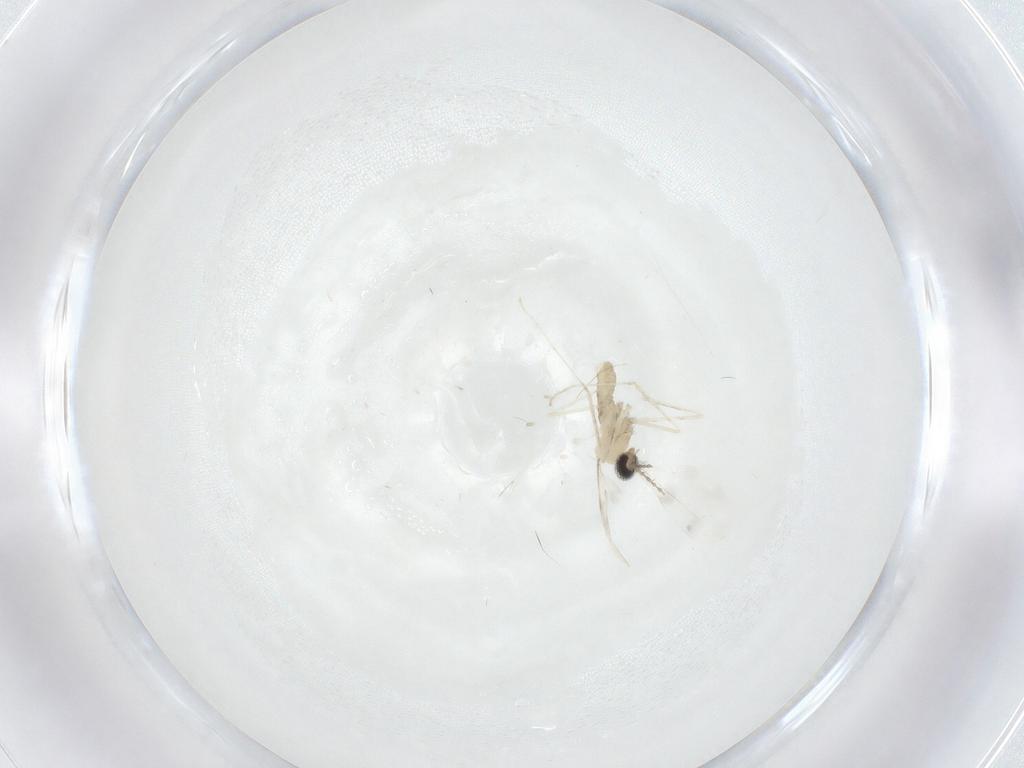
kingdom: Animalia
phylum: Arthropoda
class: Insecta
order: Diptera
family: Cecidomyiidae
